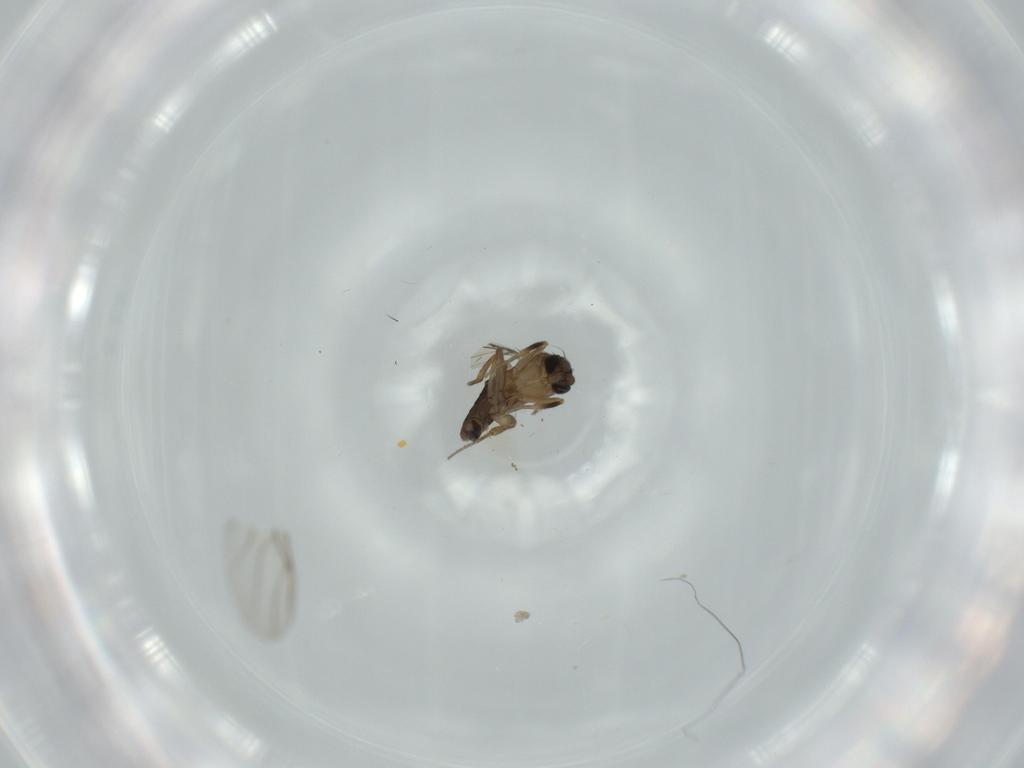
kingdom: Animalia
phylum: Arthropoda
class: Insecta
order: Diptera
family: Phoridae
